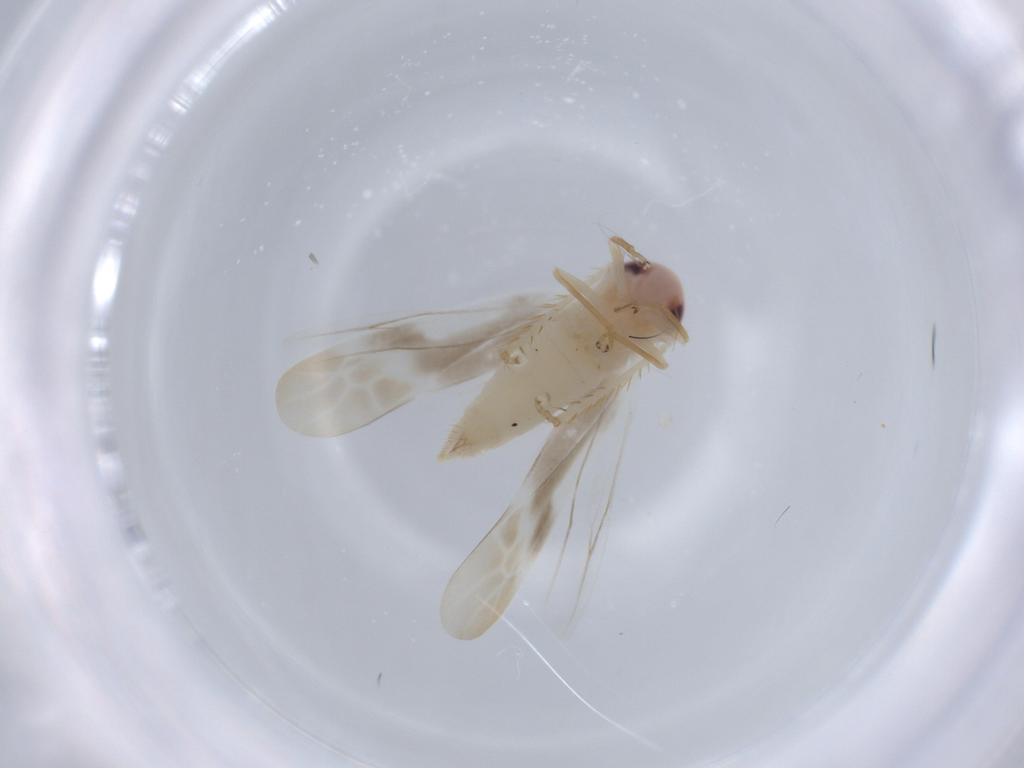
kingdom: Animalia
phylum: Arthropoda
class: Insecta
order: Hemiptera
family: Cicadellidae
